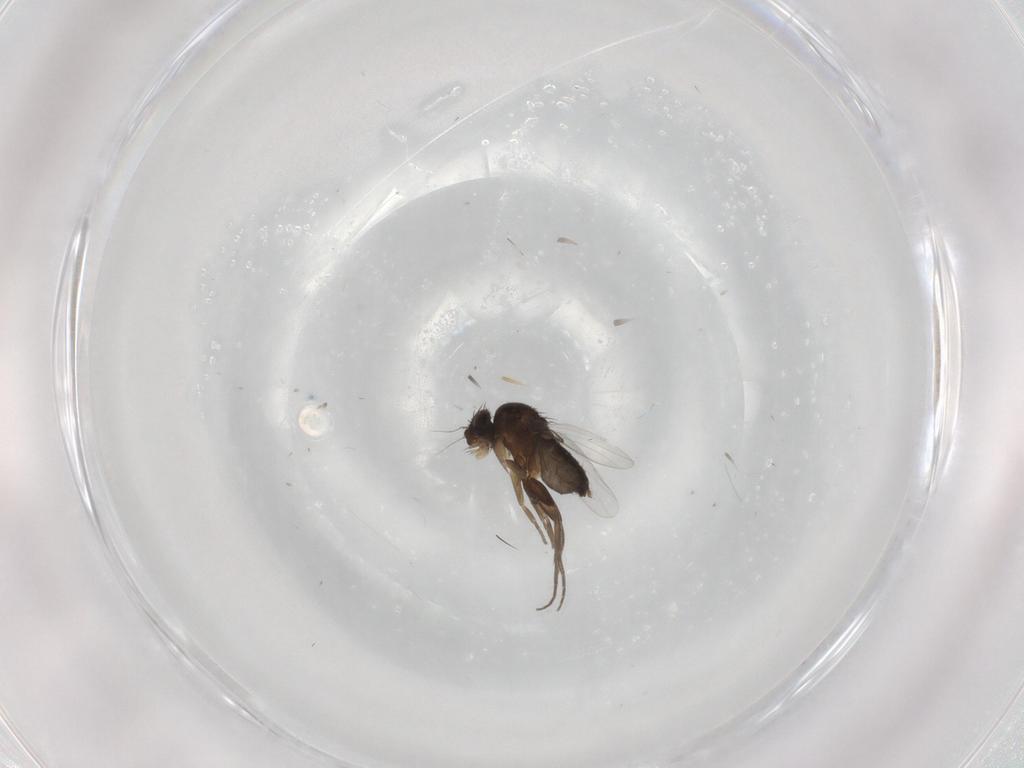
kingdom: Animalia
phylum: Arthropoda
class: Insecta
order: Diptera
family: Phoridae
